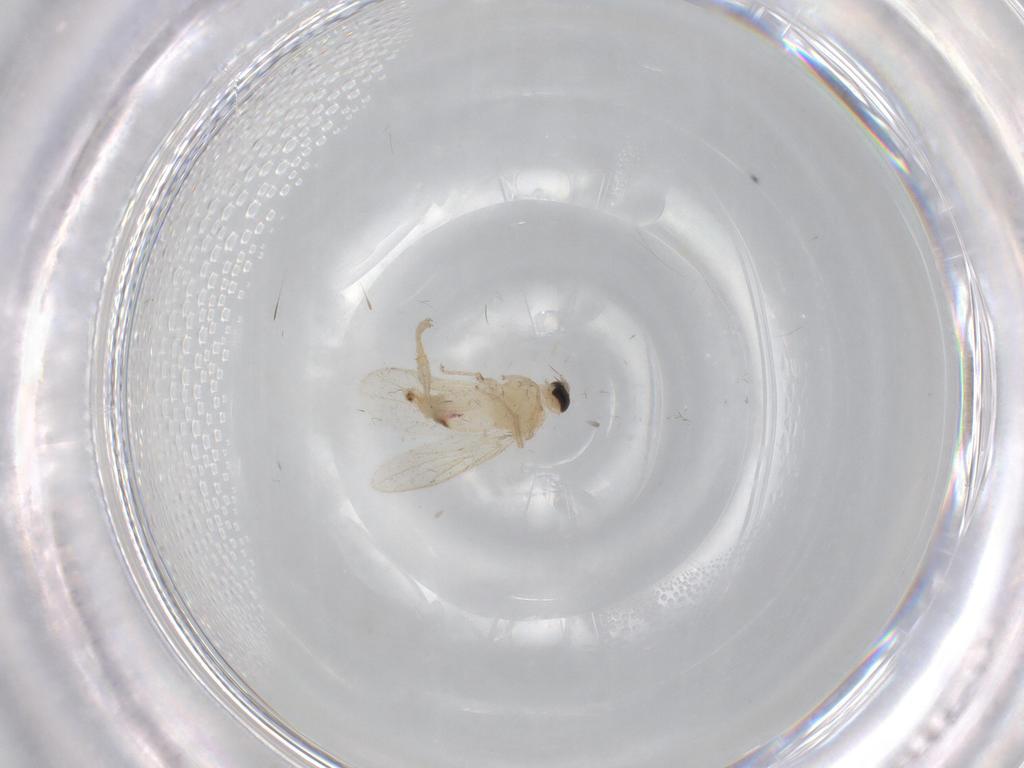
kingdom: Animalia
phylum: Arthropoda
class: Insecta
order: Diptera
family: Hybotidae
